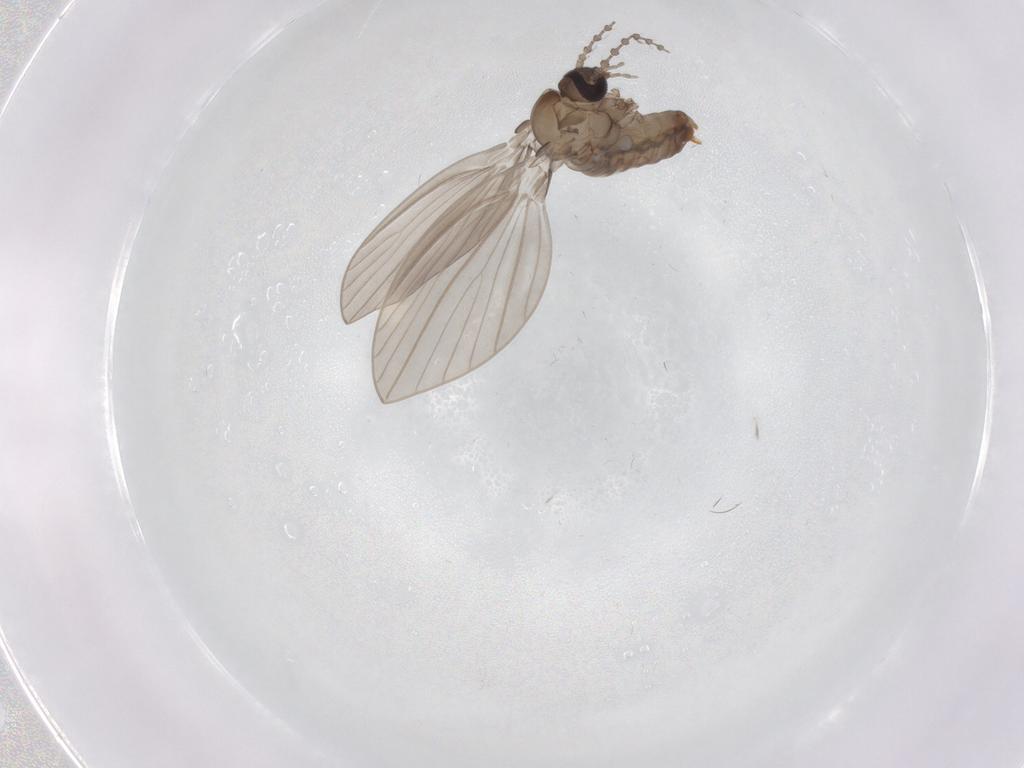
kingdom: Animalia
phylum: Arthropoda
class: Insecta
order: Diptera
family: Psychodidae
